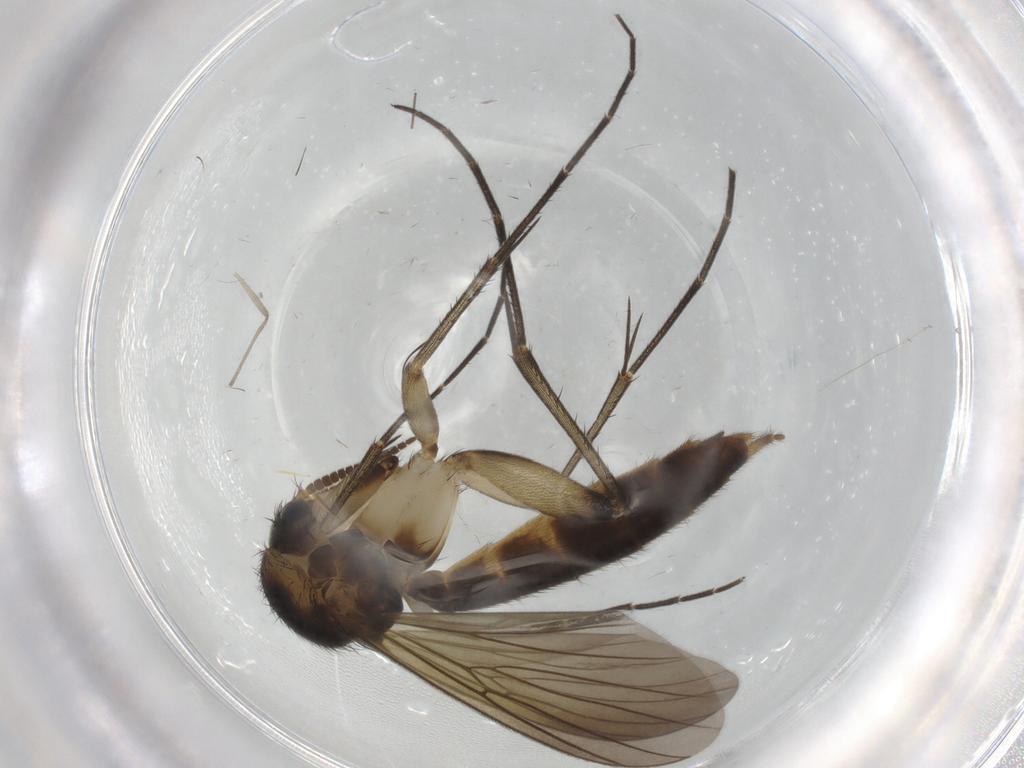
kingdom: Animalia
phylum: Arthropoda
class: Insecta
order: Diptera
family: Mycetophilidae
